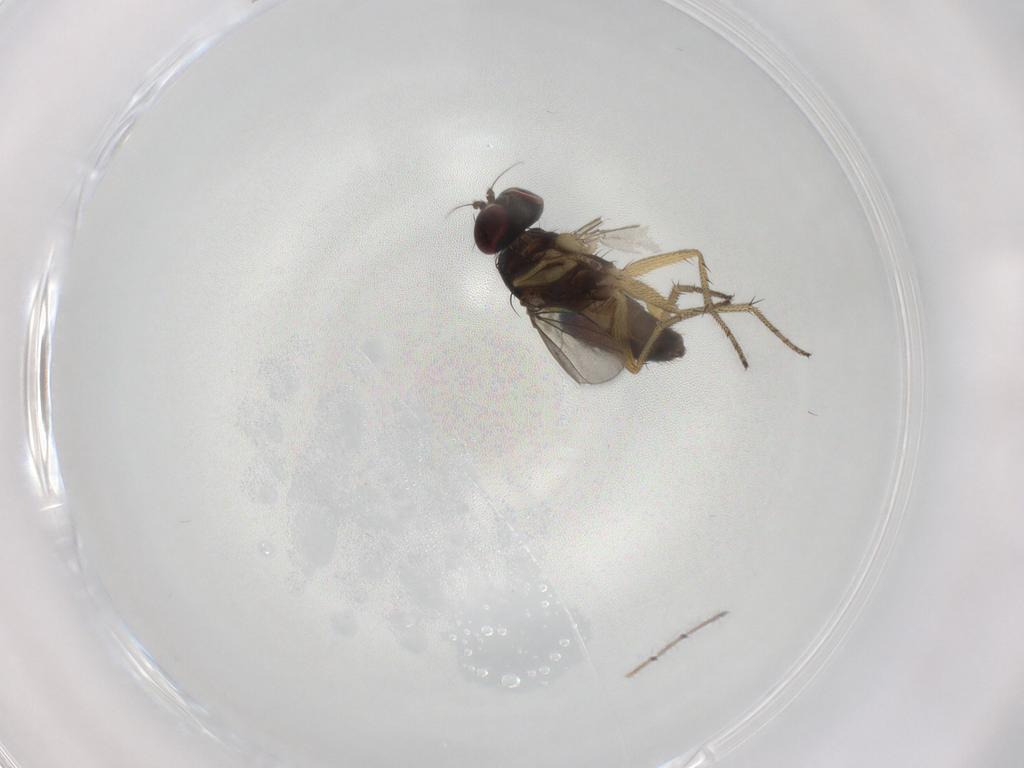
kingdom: Animalia
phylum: Arthropoda
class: Insecta
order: Diptera
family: Dolichopodidae
